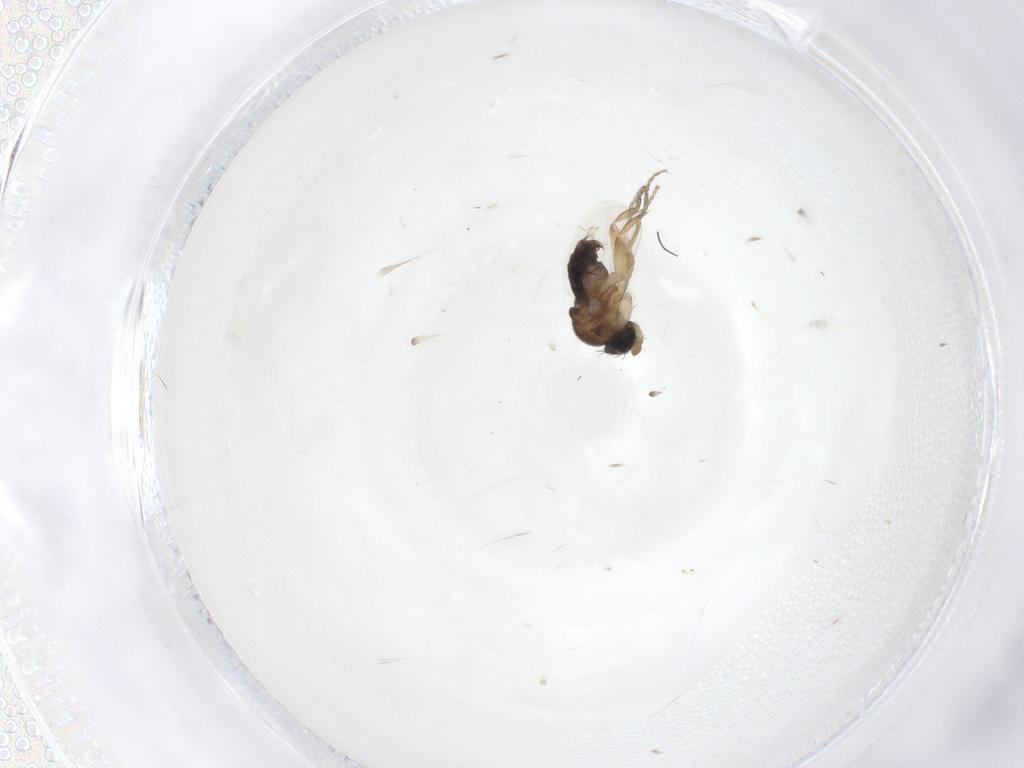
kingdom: Animalia
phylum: Arthropoda
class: Insecta
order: Diptera
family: Phoridae
